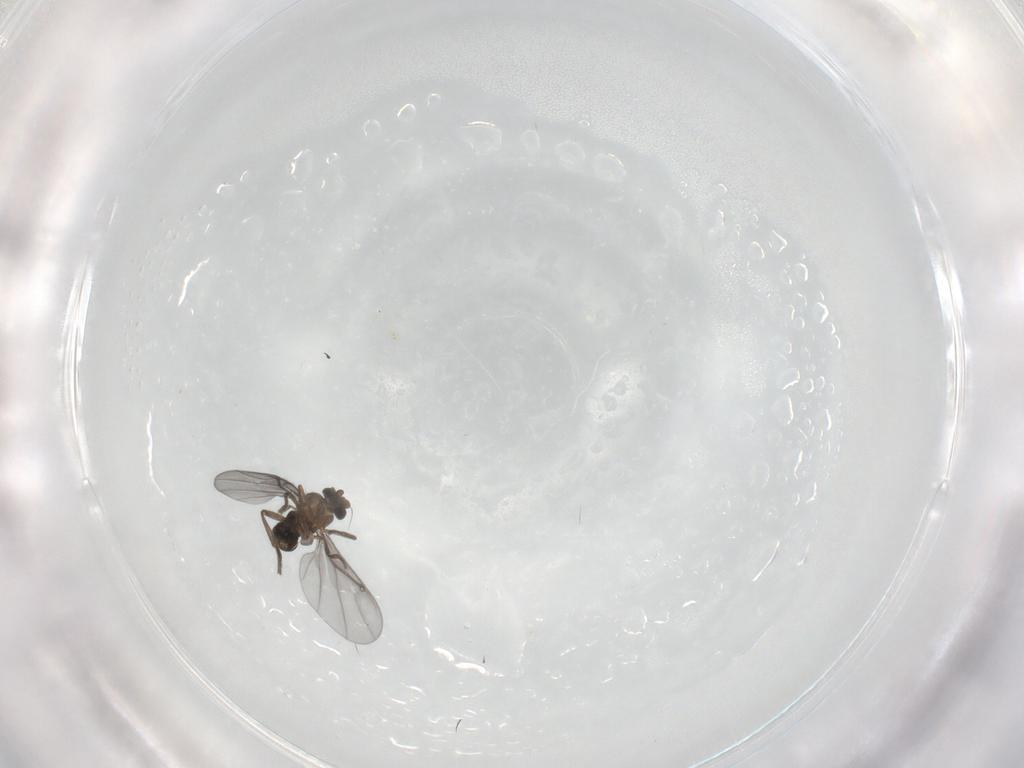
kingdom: Animalia
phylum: Arthropoda
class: Insecta
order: Diptera
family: Chironomidae
